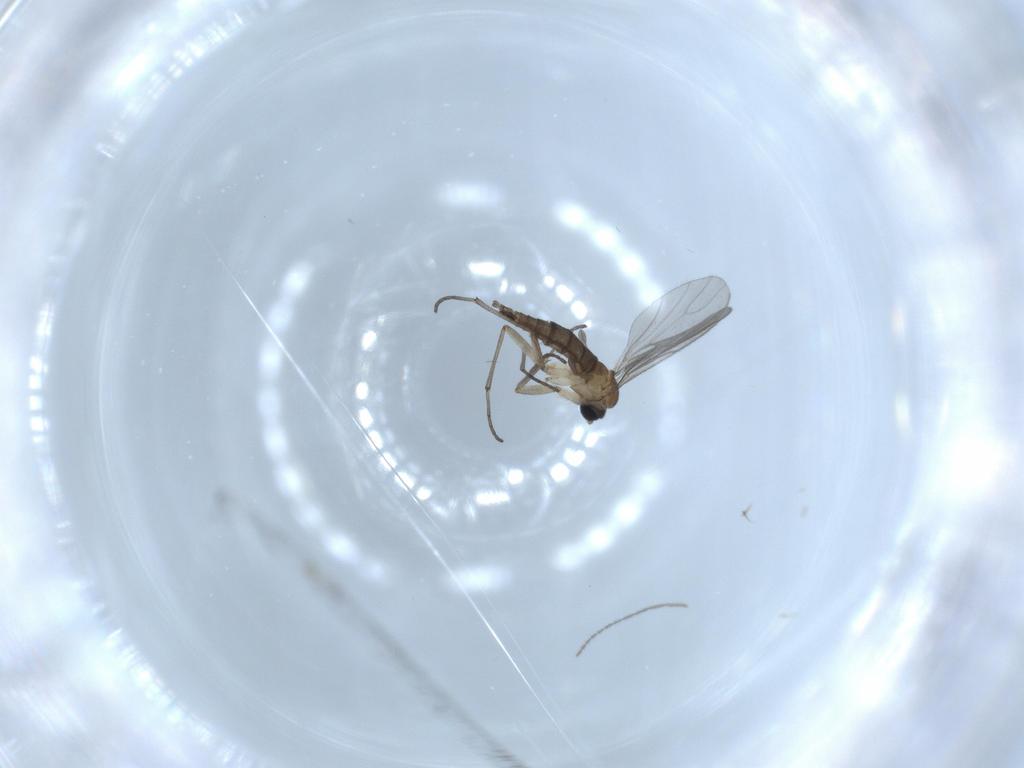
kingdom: Animalia
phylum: Arthropoda
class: Insecta
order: Diptera
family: Sciaridae
